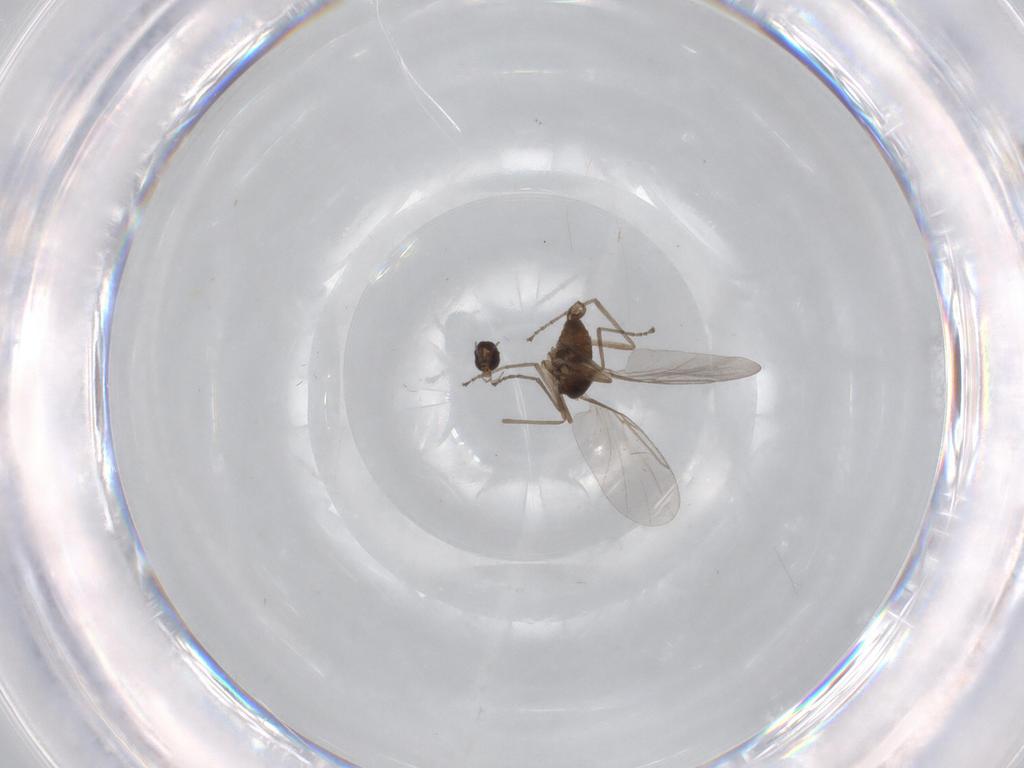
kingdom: Animalia
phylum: Arthropoda
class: Insecta
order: Diptera
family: Cecidomyiidae
